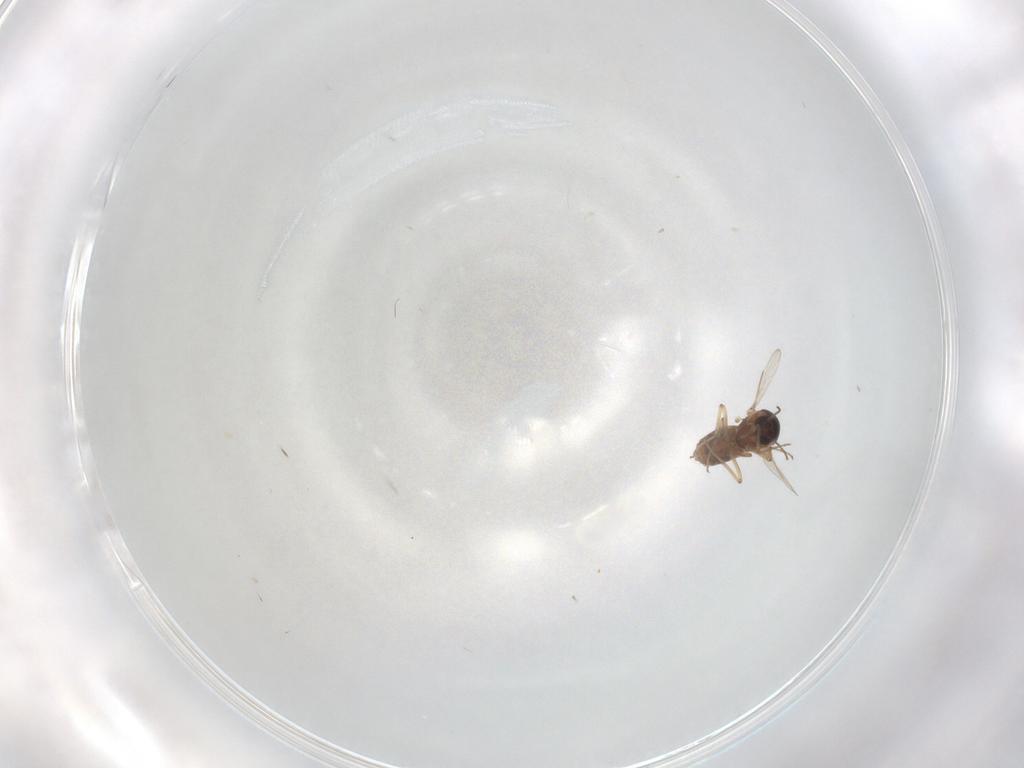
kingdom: Animalia
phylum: Arthropoda
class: Insecta
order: Diptera
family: Ceratopogonidae
